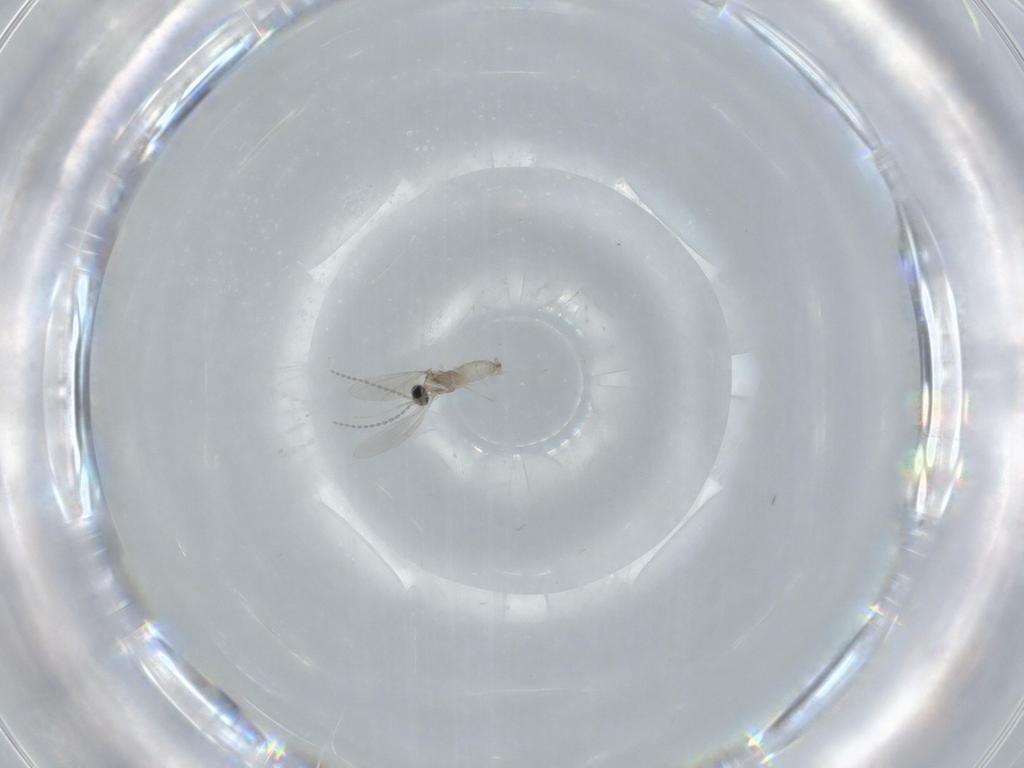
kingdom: Animalia
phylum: Arthropoda
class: Insecta
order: Diptera
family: Cecidomyiidae
